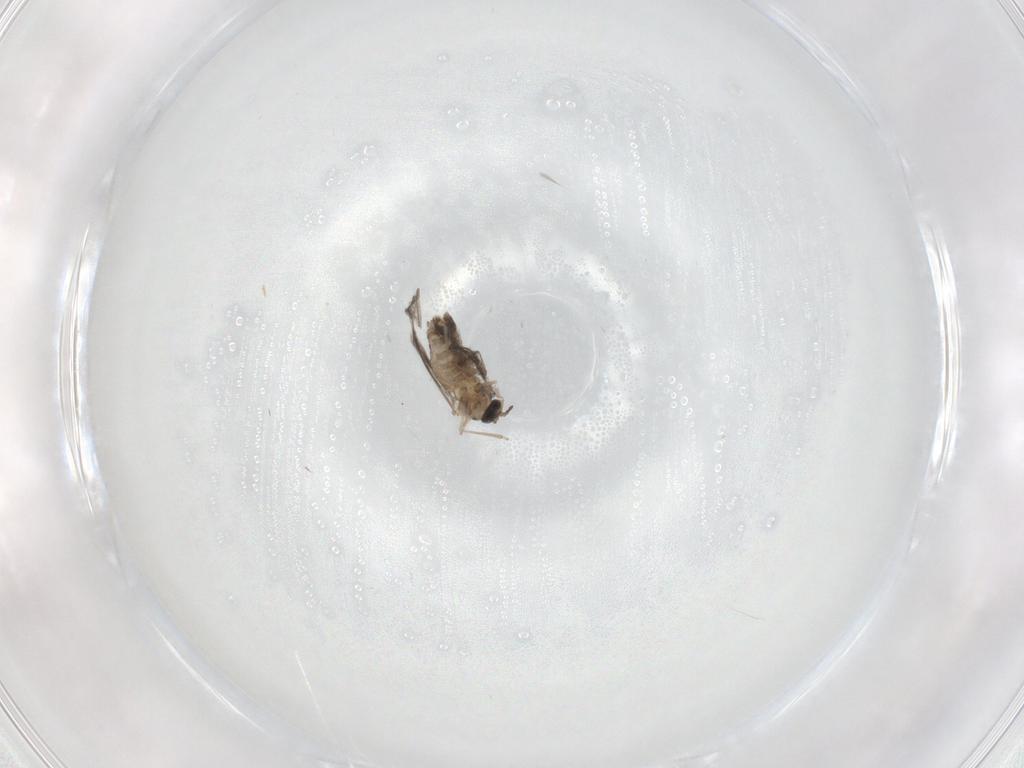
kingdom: Animalia
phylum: Arthropoda
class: Insecta
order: Diptera
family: Cecidomyiidae
